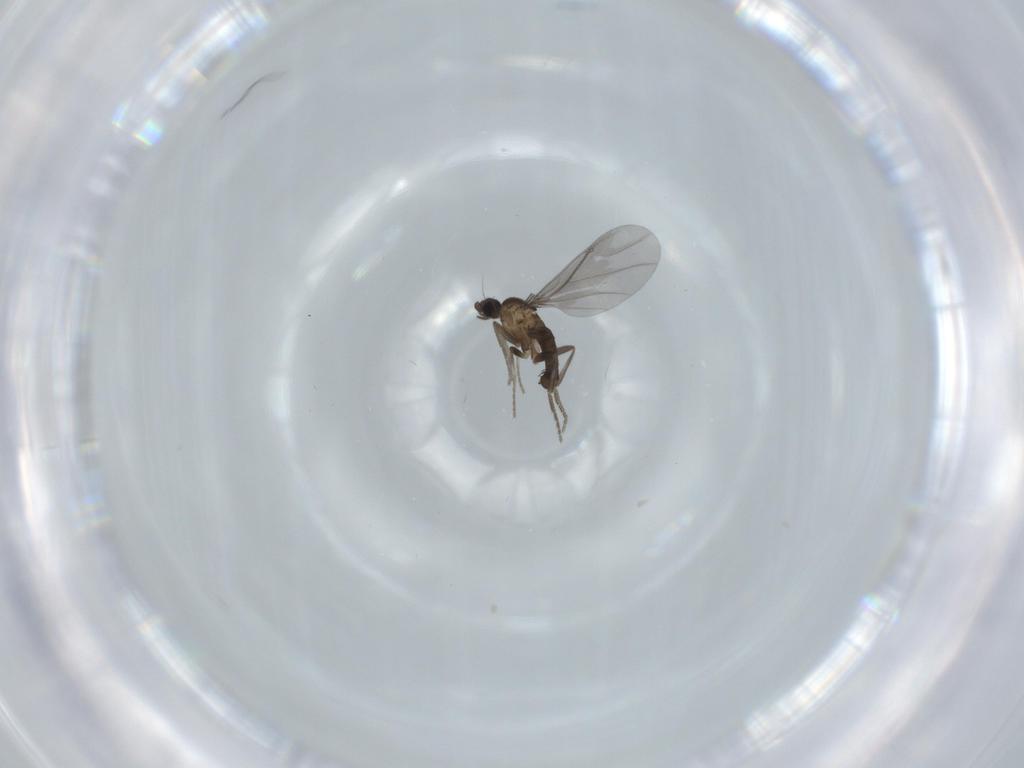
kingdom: Animalia
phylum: Arthropoda
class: Insecta
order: Diptera
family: Phoridae
